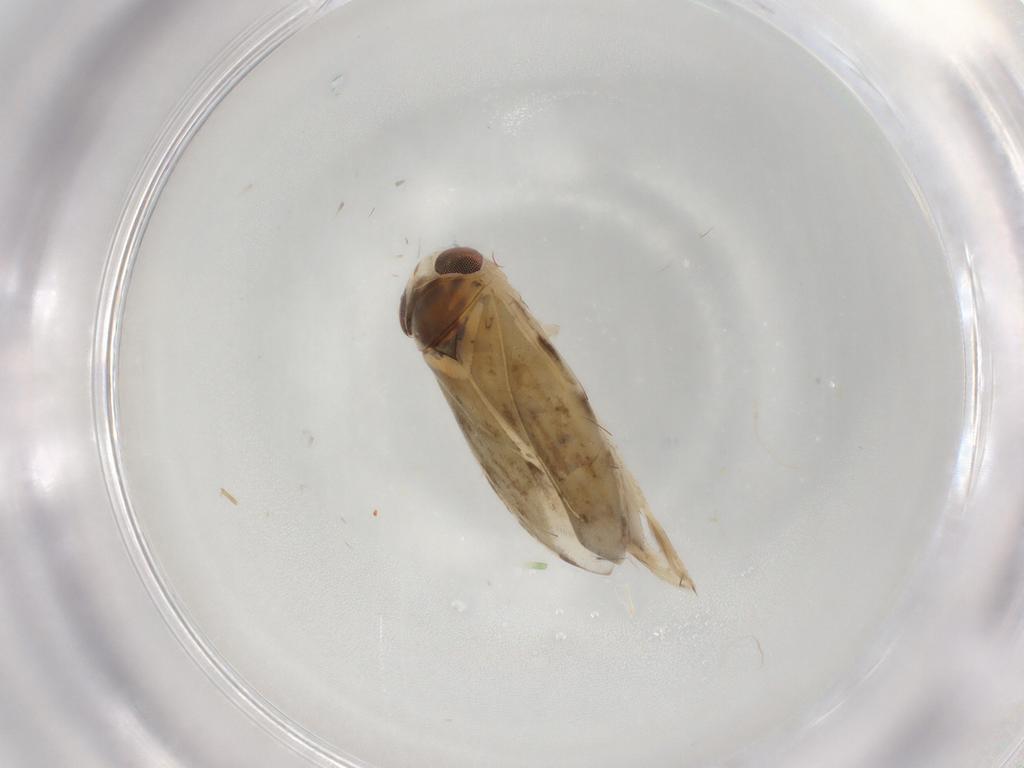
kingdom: Animalia
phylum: Arthropoda
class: Insecta
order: Hemiptera
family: Corixidae
